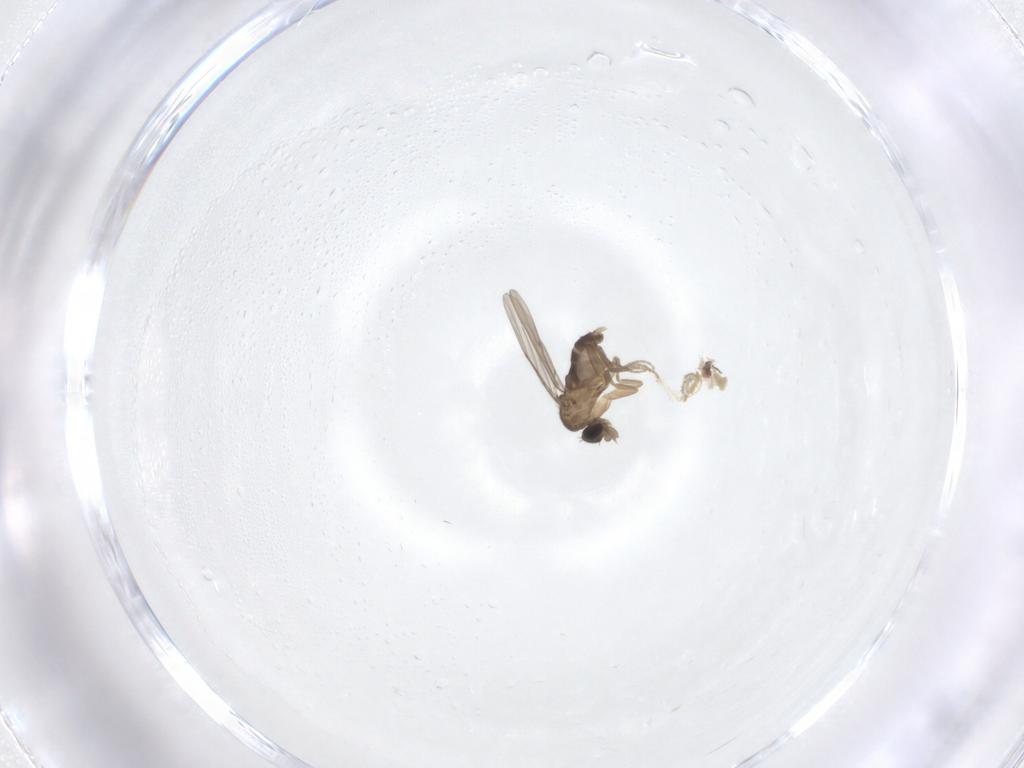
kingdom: Animalia
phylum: Arthropoda
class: Insecta
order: Diptera
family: Phoridae
